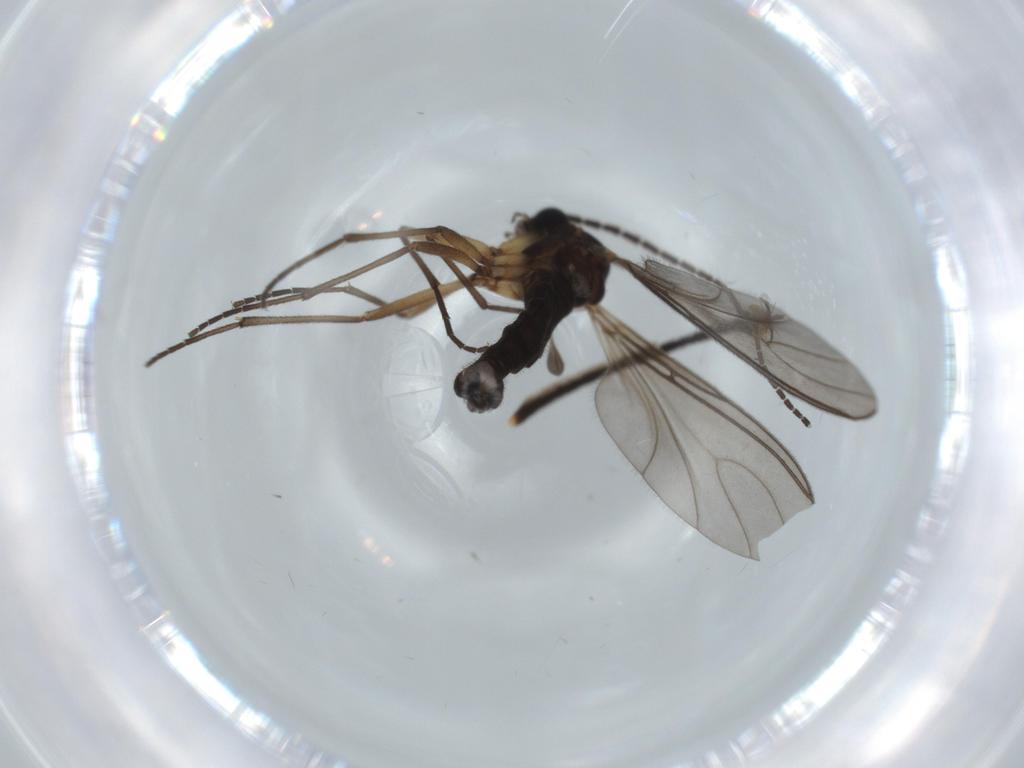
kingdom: Animalia
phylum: Arthropoda
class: Insecta
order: Diptera
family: Sciaridae
